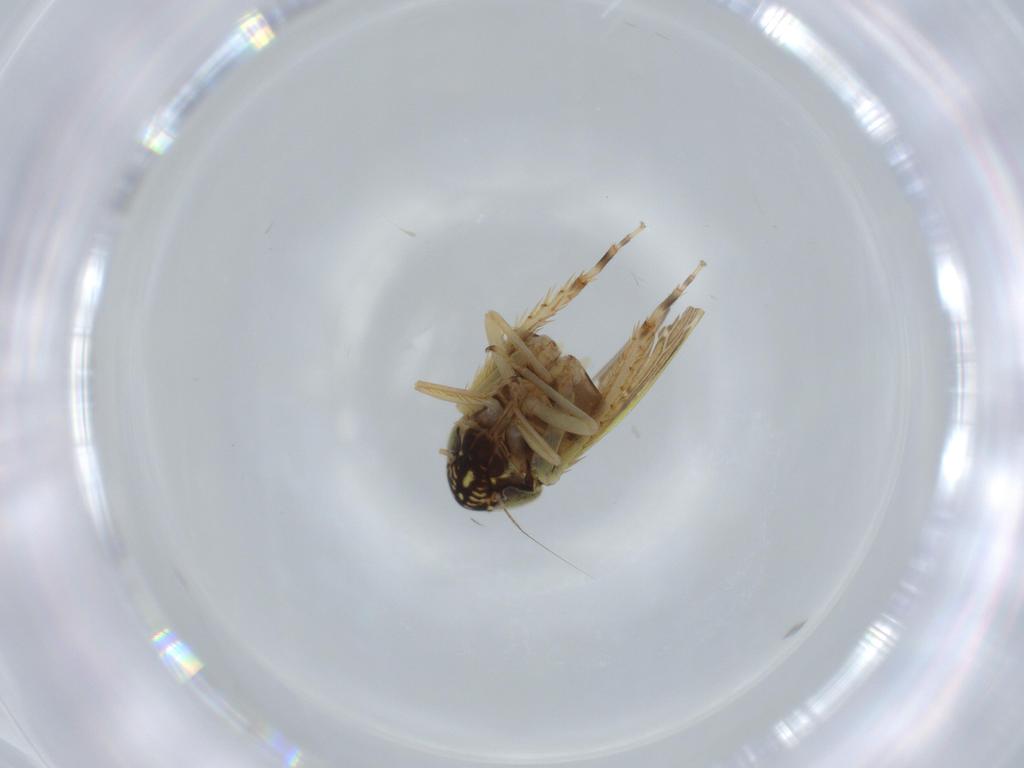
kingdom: Animalia
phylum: Arthropoda
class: Insecta
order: Hemiptera
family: Cicadellidae
